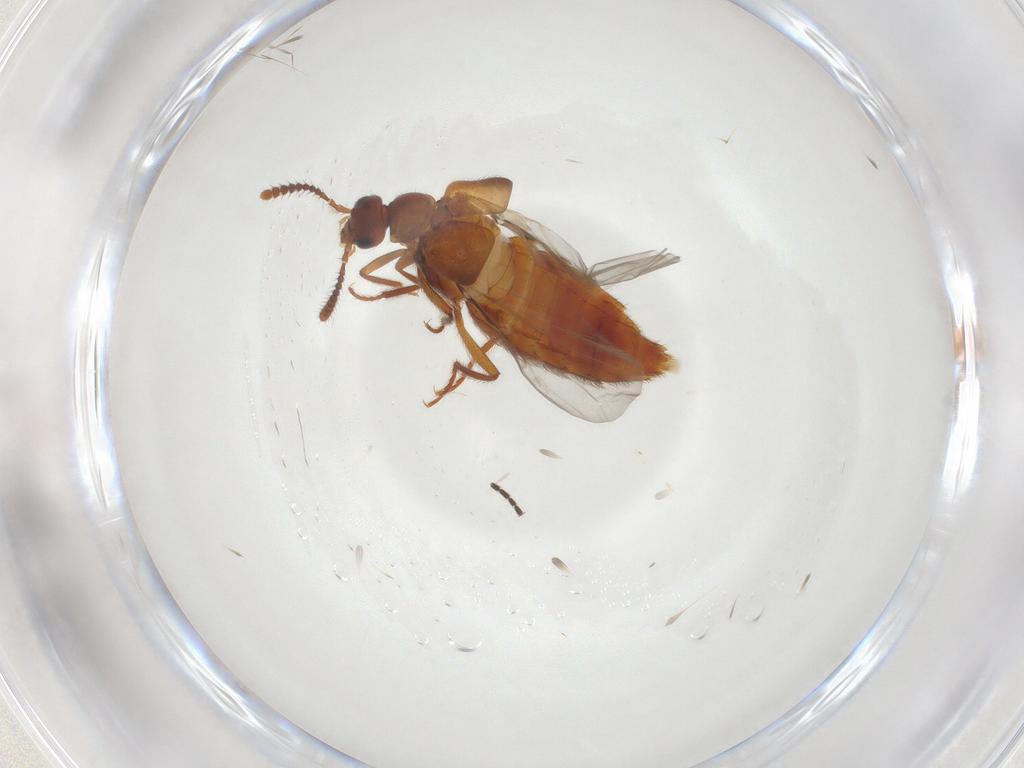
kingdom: Animalia
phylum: Arthropoda
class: Insecta
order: Coleoptera
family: Staphylinidae
